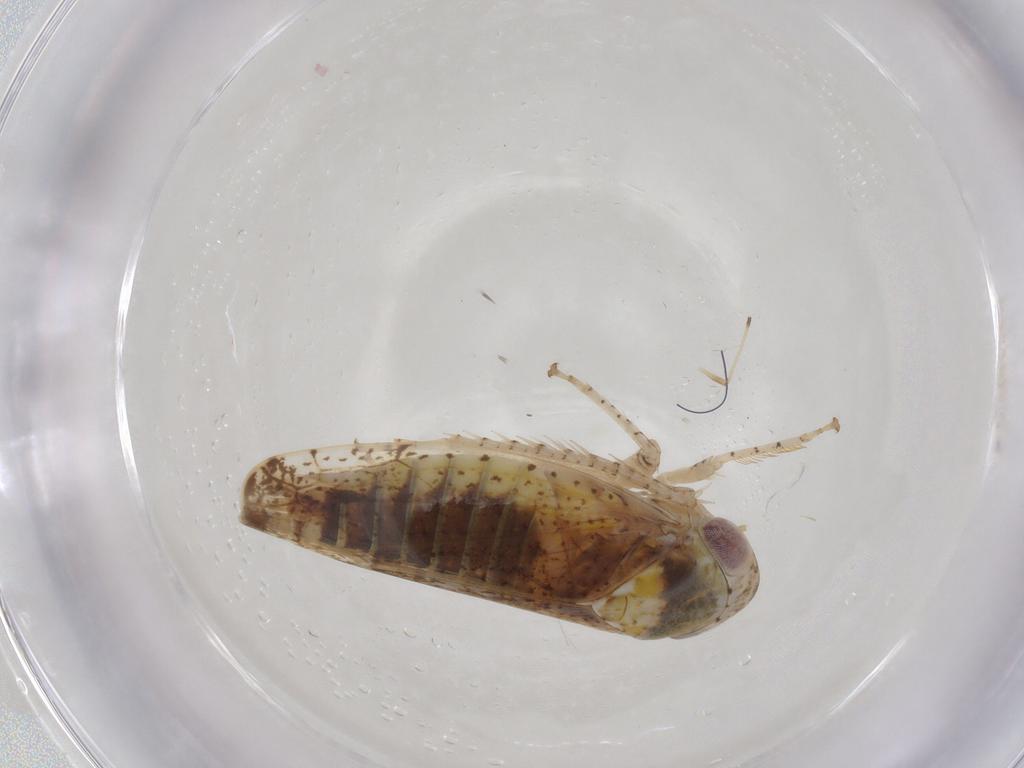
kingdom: Animalia
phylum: Arthropoda
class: Insecta
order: Hemiptera
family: Cicadellidae
